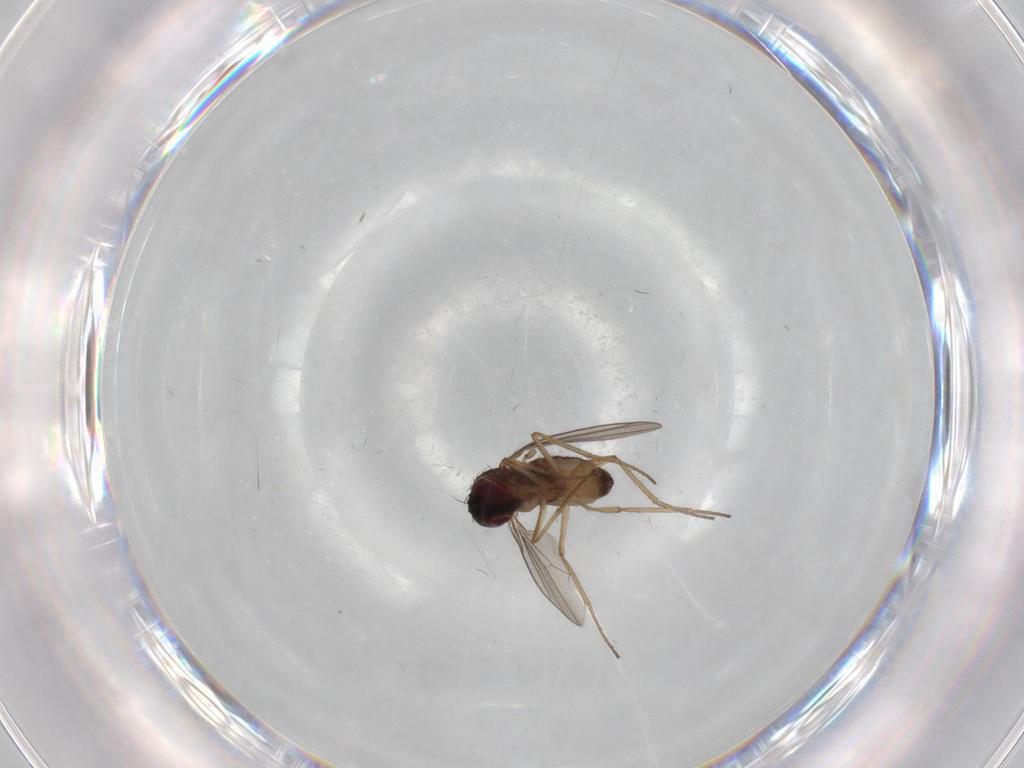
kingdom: Animalia
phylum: Arthropoda
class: Insecta
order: Diptera
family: Dolichopodidae
